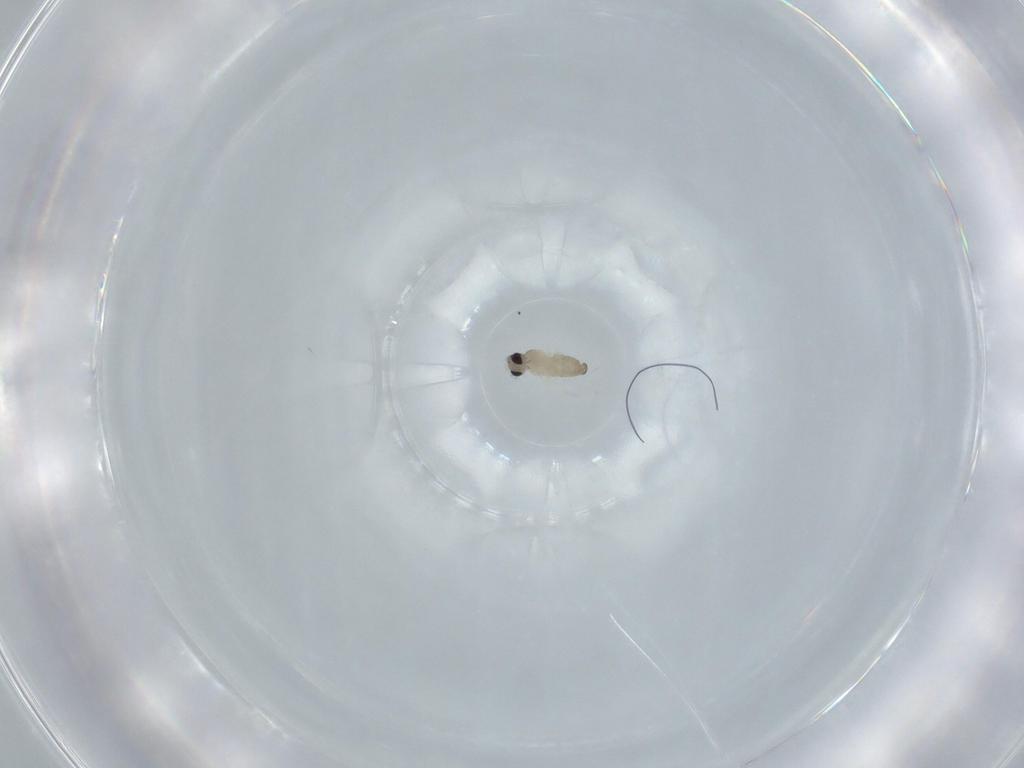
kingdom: Animalia
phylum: Arthropoda
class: Insecta
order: Diptera
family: Cecidomyiidae
